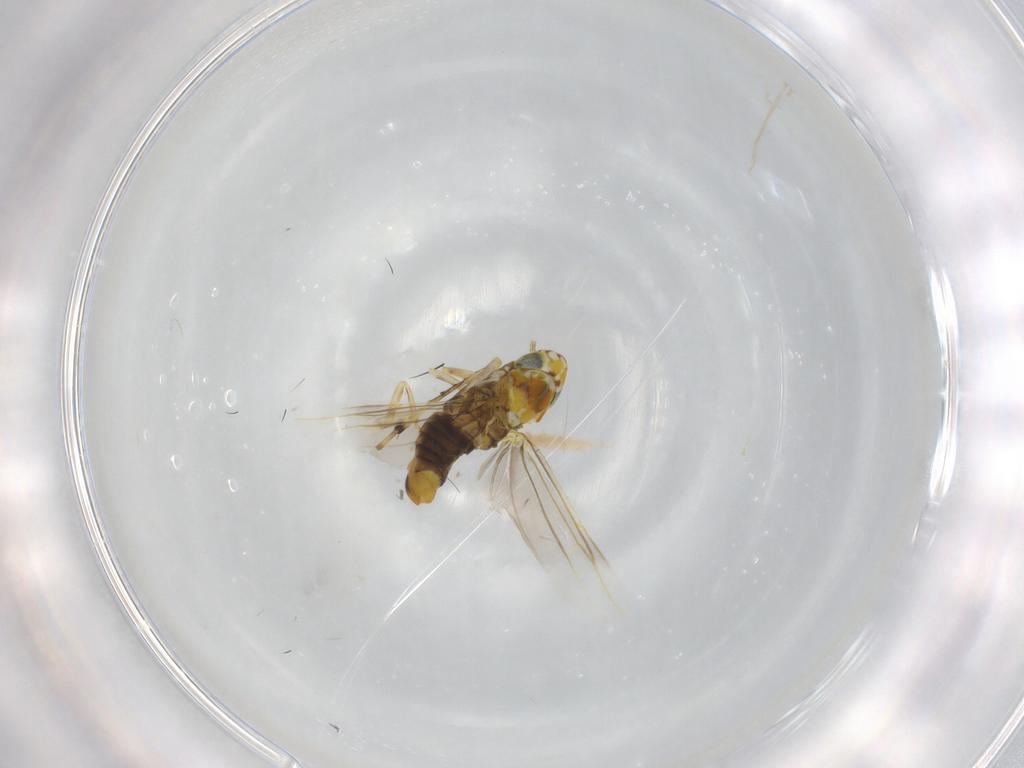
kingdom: Animalia
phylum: Arthropoda
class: Insecta
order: Hemiptera
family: Cicadellidae
